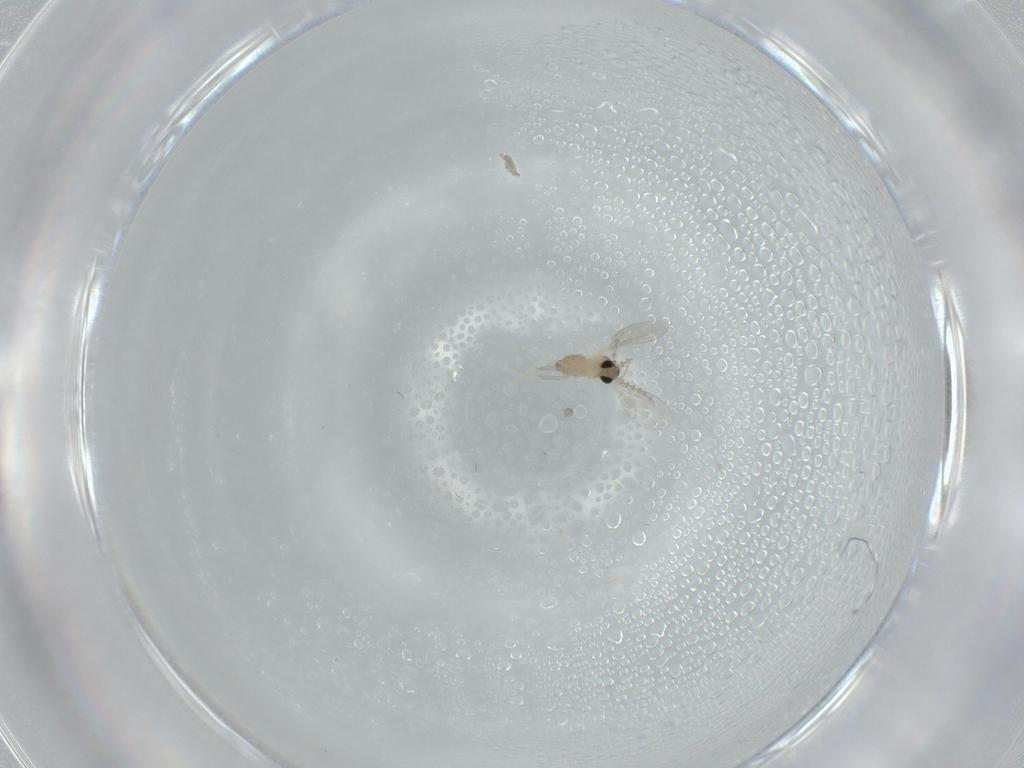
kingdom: Animalia
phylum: Arthropoda
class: Insecta
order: Diptera
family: Cecidomyiidae
